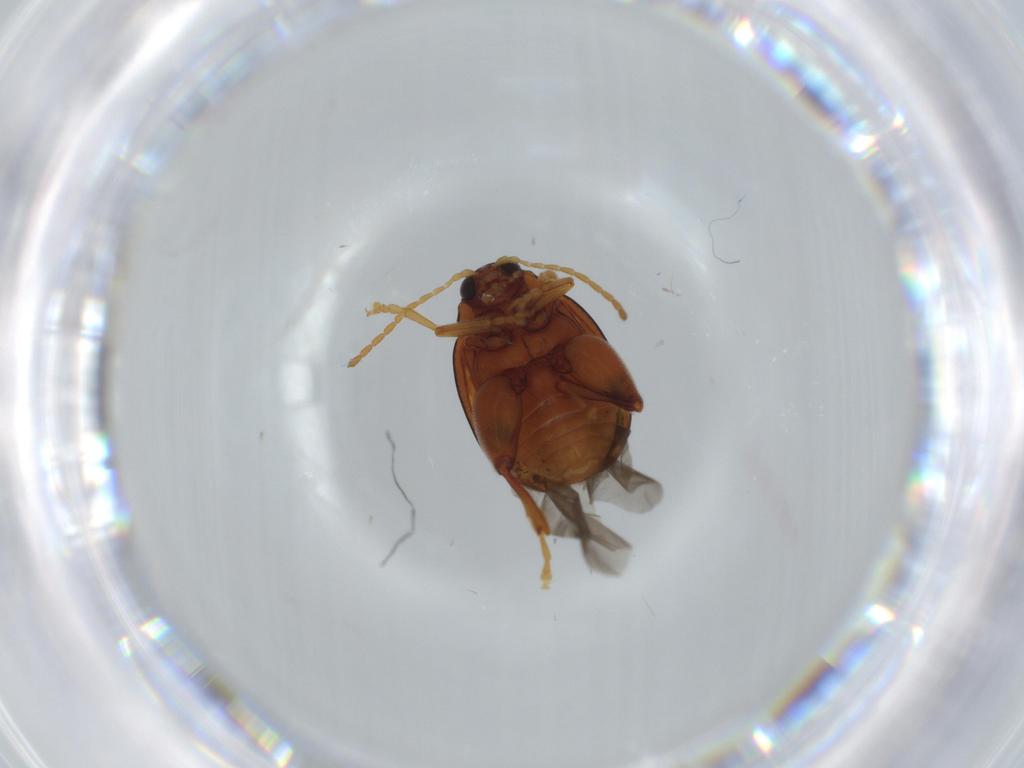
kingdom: Animalia
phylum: Arthropoda
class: Insecta
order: Coleoptera
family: Chrysomelidae
